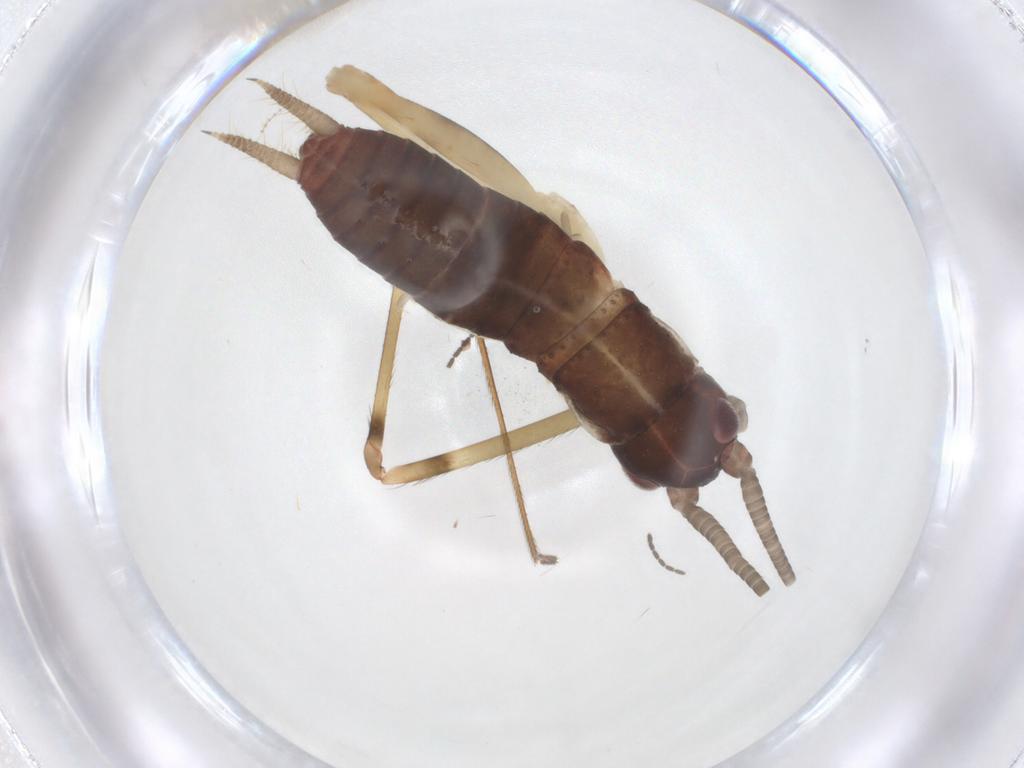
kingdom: Animalia
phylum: Arthropoda
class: Insecta
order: Orthoptera
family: Gryllidae
